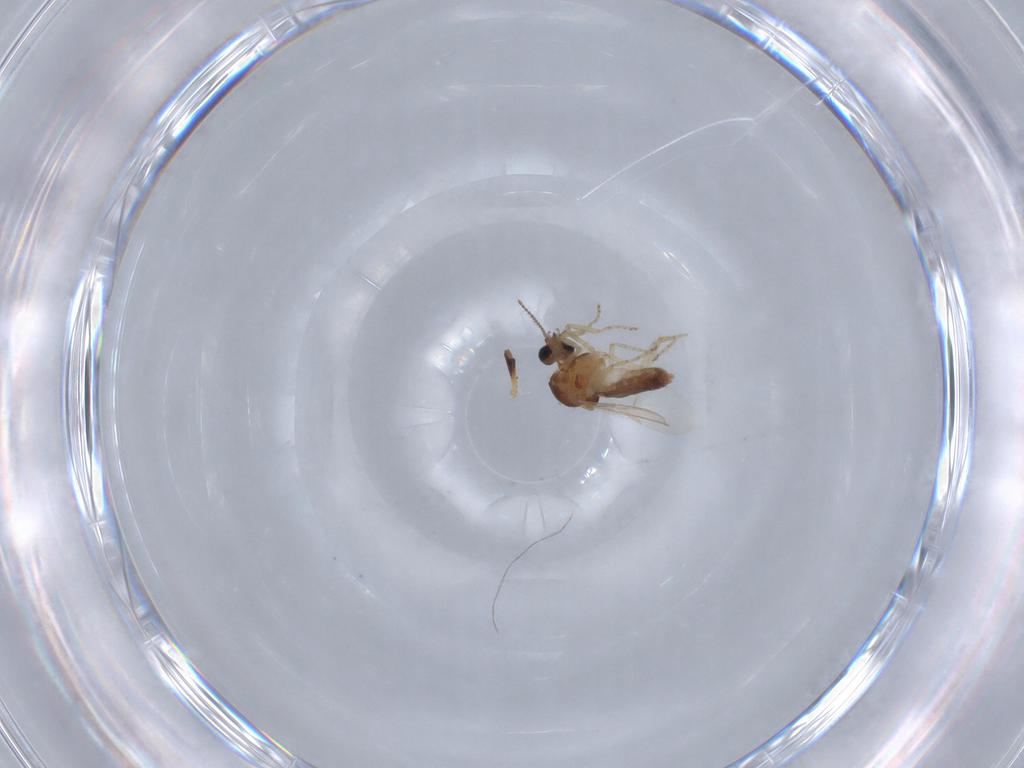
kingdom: Animalia
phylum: Arthropoda
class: Insecta
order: Diptera
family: Ceratopogonidae
